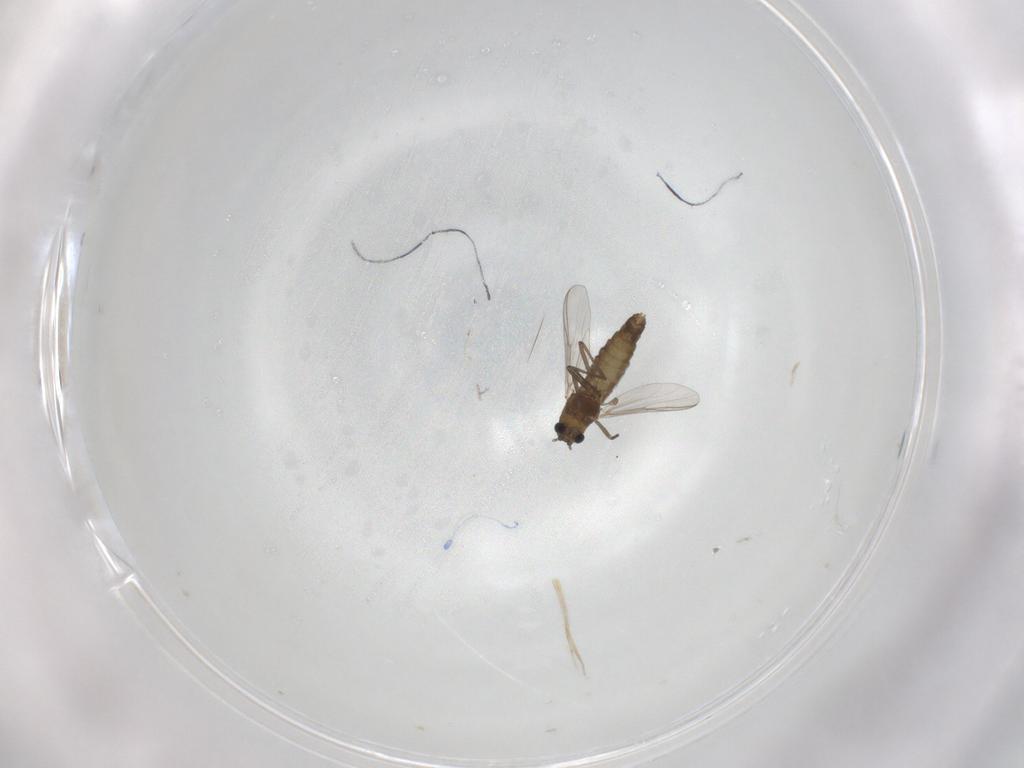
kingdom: Animalia
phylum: Arthropoda
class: Insecta
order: Diptera
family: Chironomidae
